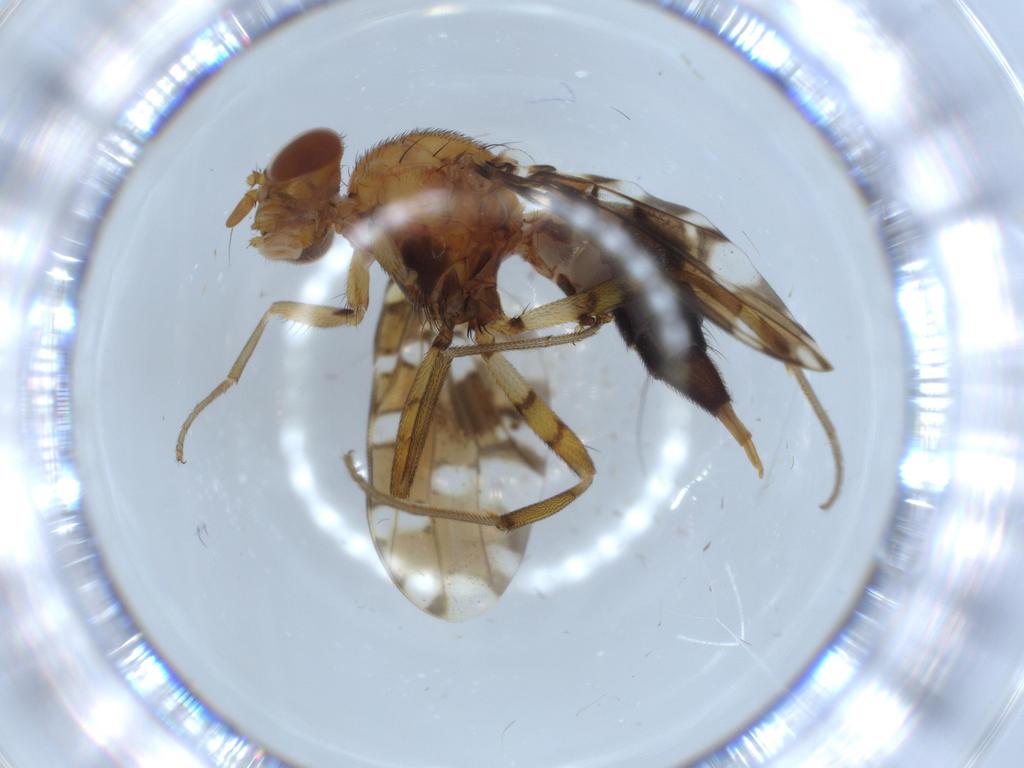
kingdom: Animalia
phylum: Arthropoda
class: Insecta
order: Diptera
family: Ulidiidae
